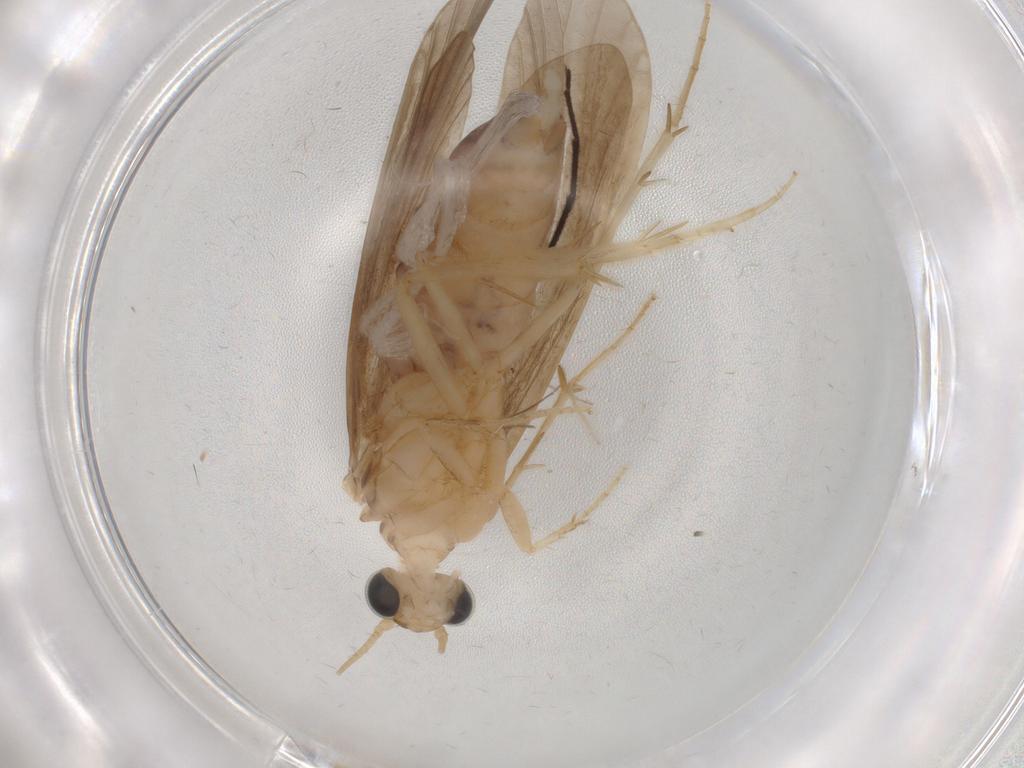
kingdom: Animalia
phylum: Arthropoda
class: Insecta
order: Trichoptera
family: Ecnomidae
